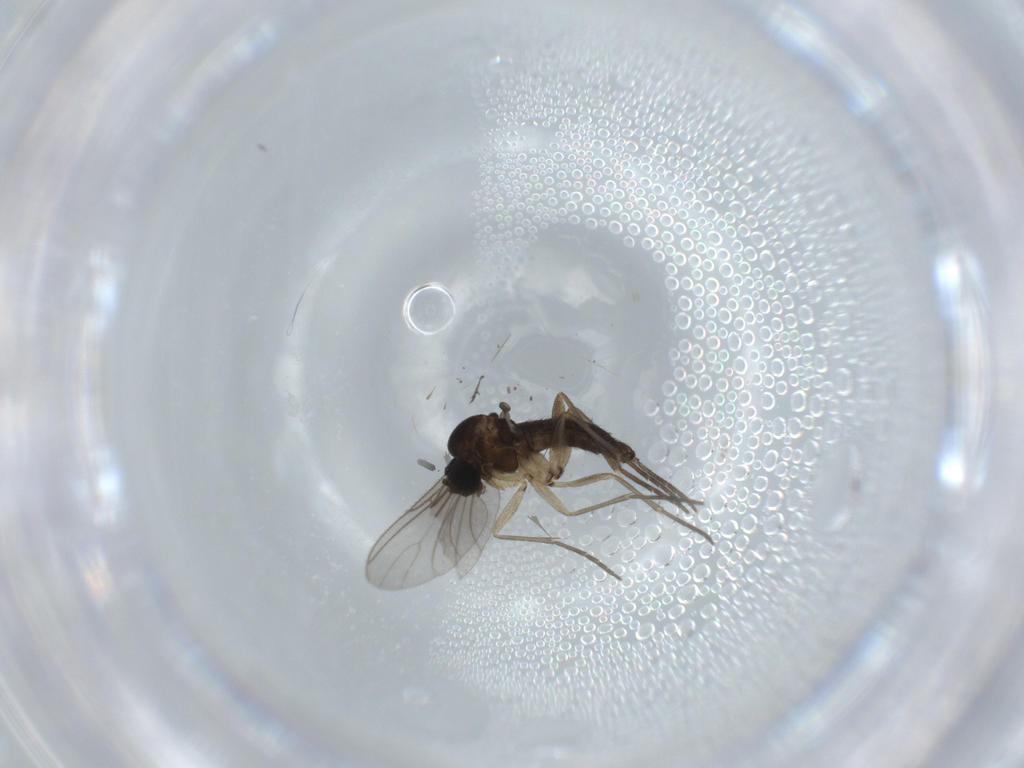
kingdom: Animalia
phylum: Arthropoda
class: Insecta
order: Diptera
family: Sciaridae
